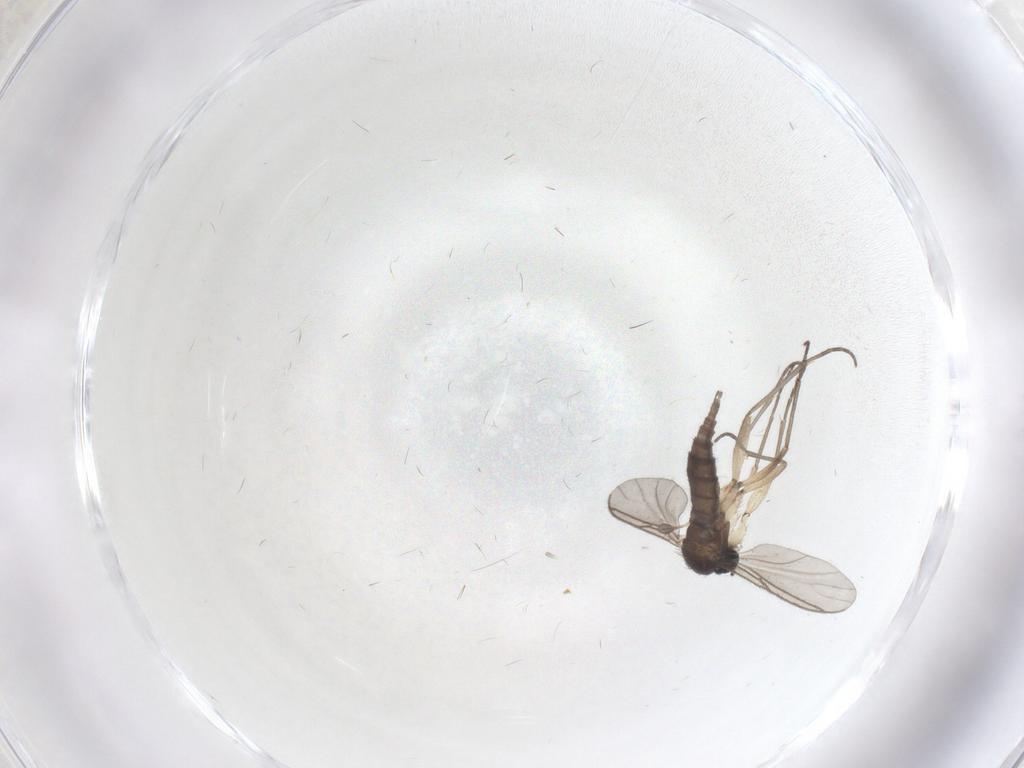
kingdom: Animalia
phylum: Arthropoda
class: Insecta
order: Diptera
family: Sciaridae
